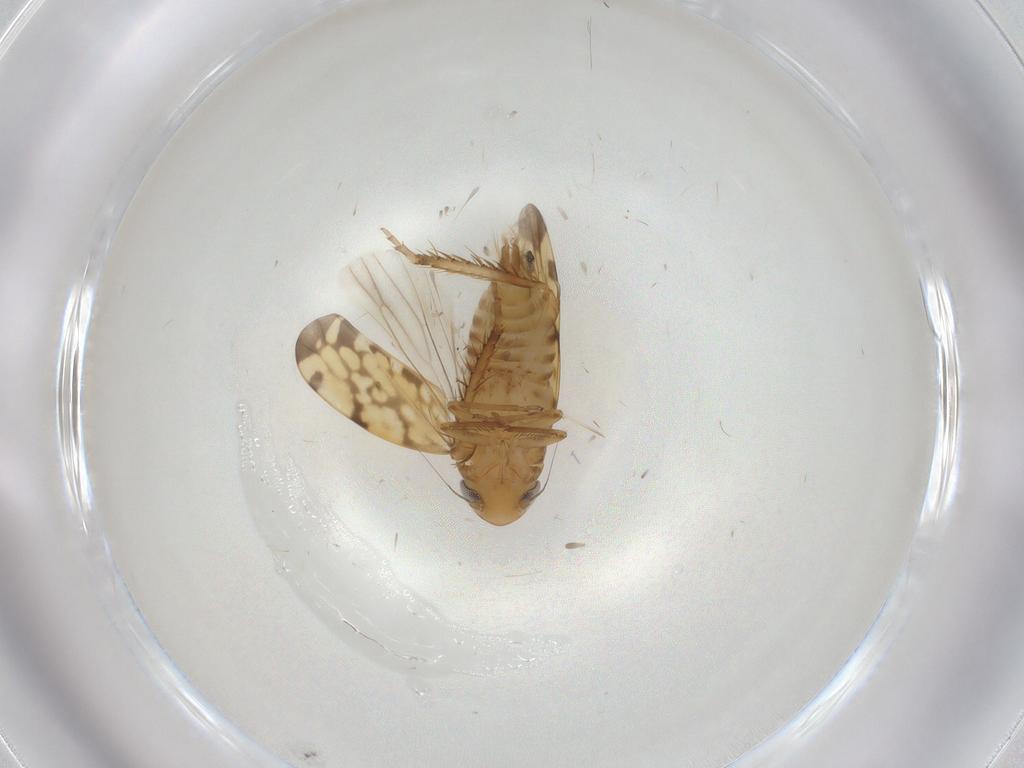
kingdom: Animalia
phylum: Arthropoda
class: Insecta
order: Hemiptera
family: Cicadellidae
